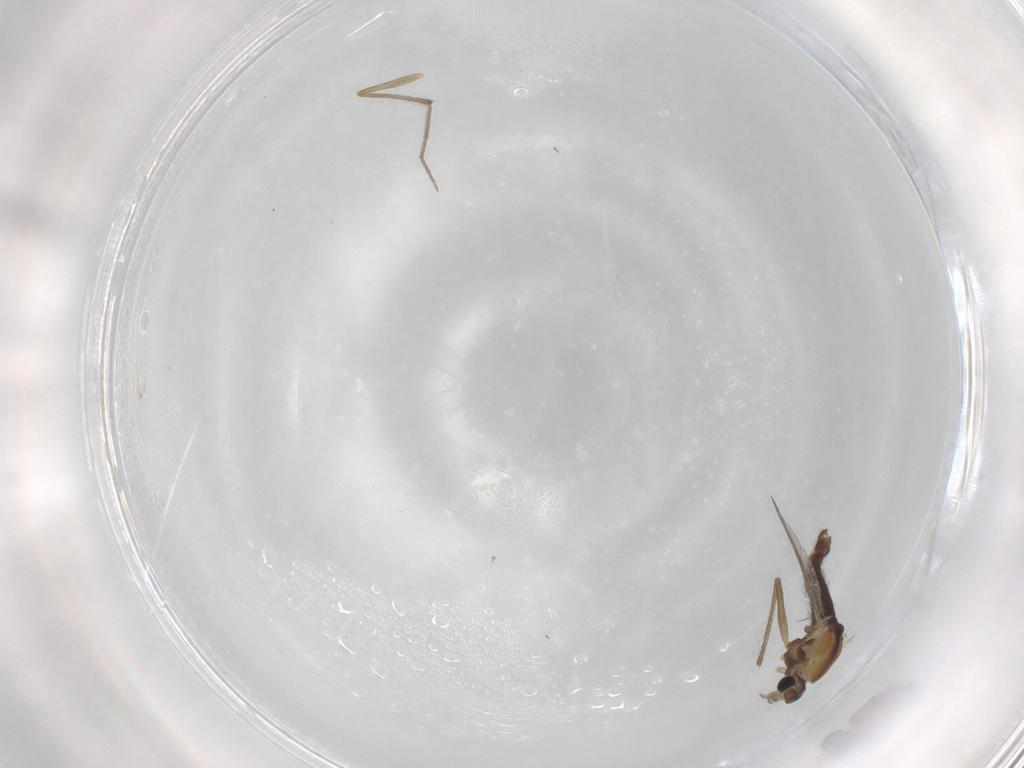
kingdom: Animalia
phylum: Arthropoda
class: Insecta
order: Diptera
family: Chironomidae
